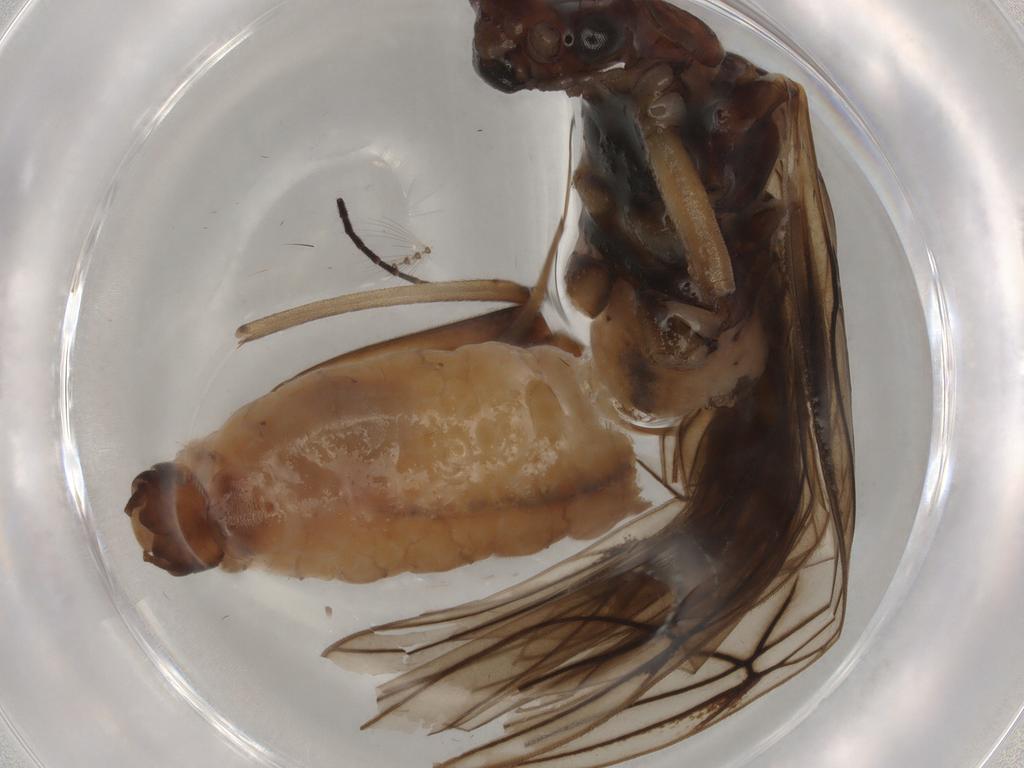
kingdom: Animalia
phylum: Arthropoda
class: Insecta
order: Plecoptera
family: Nemouridae
